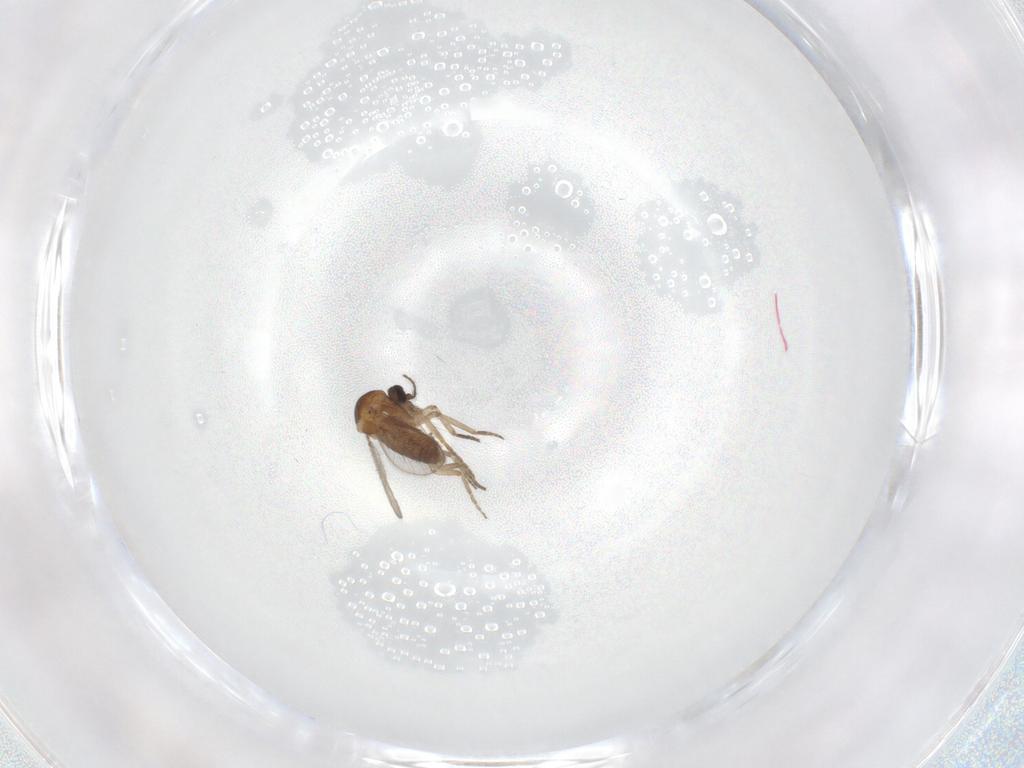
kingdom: Animalia
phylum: Arthropoda
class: Insecta
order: Diptera
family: Ceratopogonidae
